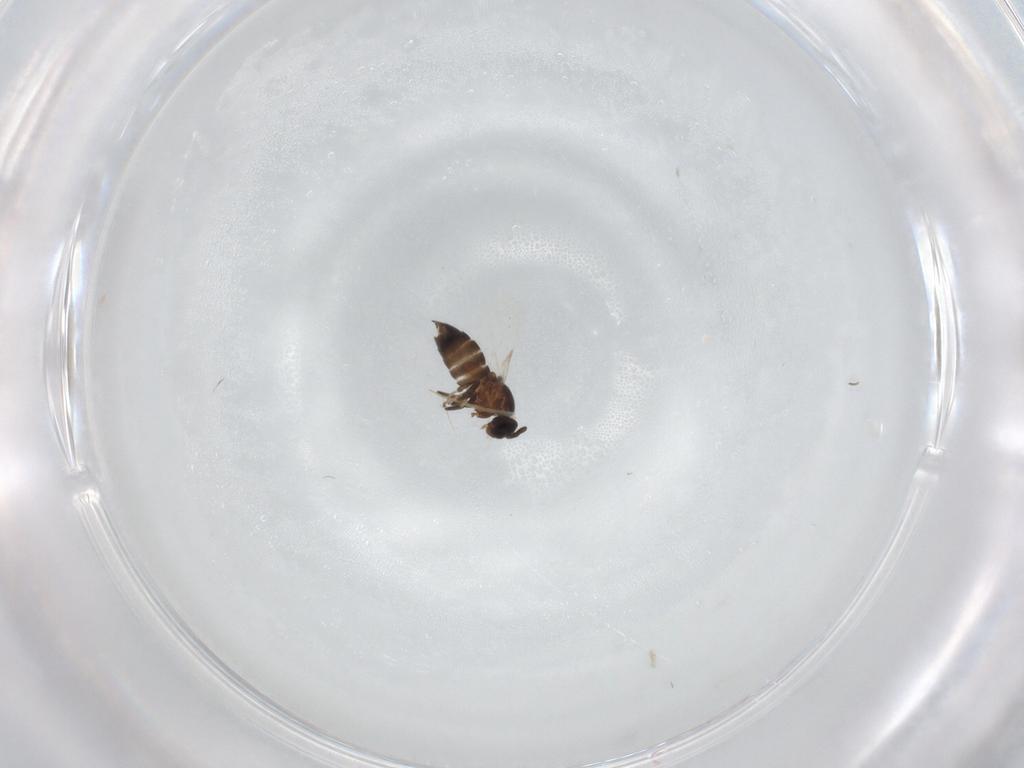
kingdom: Animalia
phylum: Arthropoda
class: Insecta
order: Diptera
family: Scatopsidae
